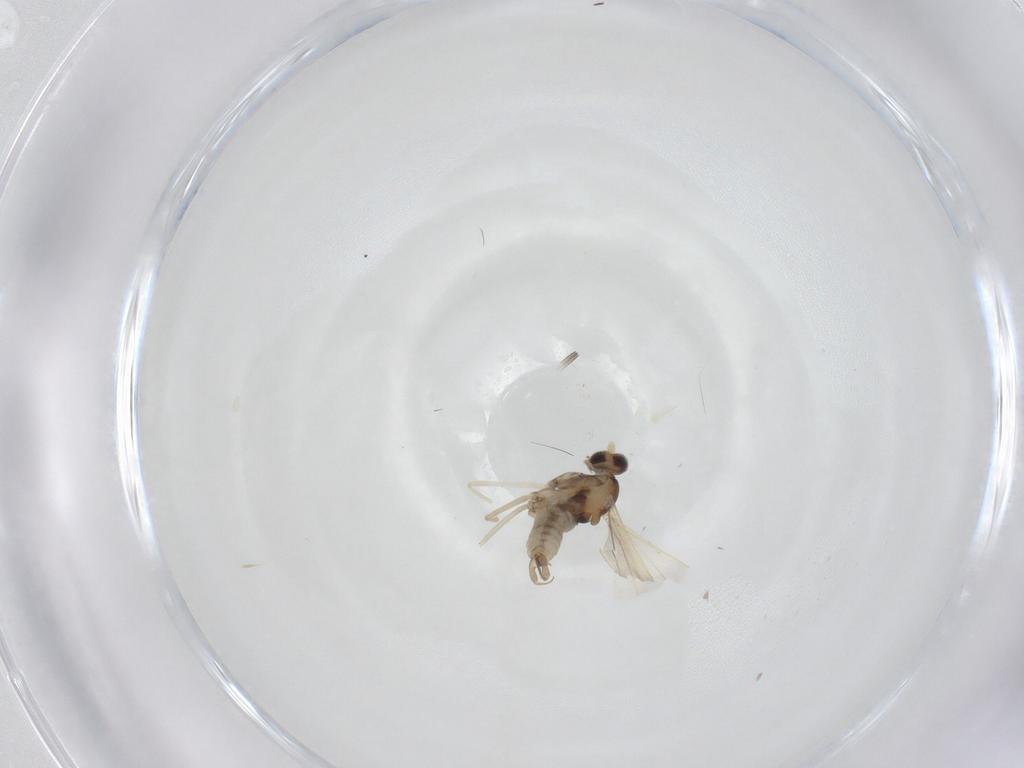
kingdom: Animalia
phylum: Arthropoda
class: Insecta
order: Diptera
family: Cecidomyiidae
